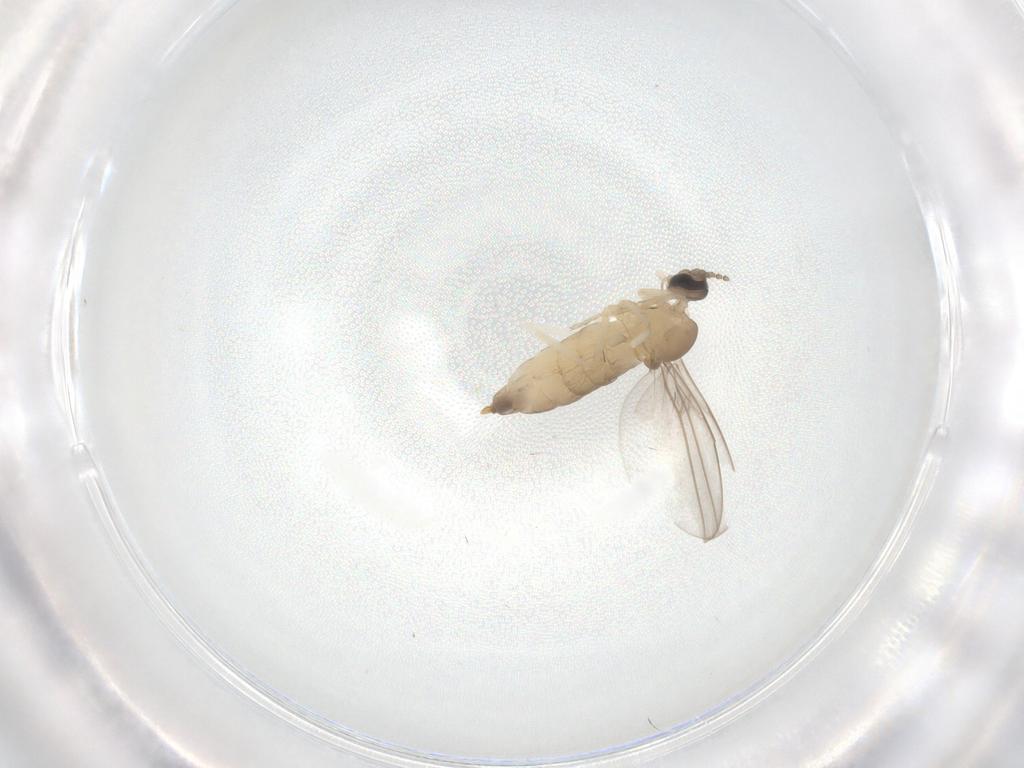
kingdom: Animalia
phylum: Arthropoda
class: Insecta
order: Diptera
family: Cecidomyiidae
